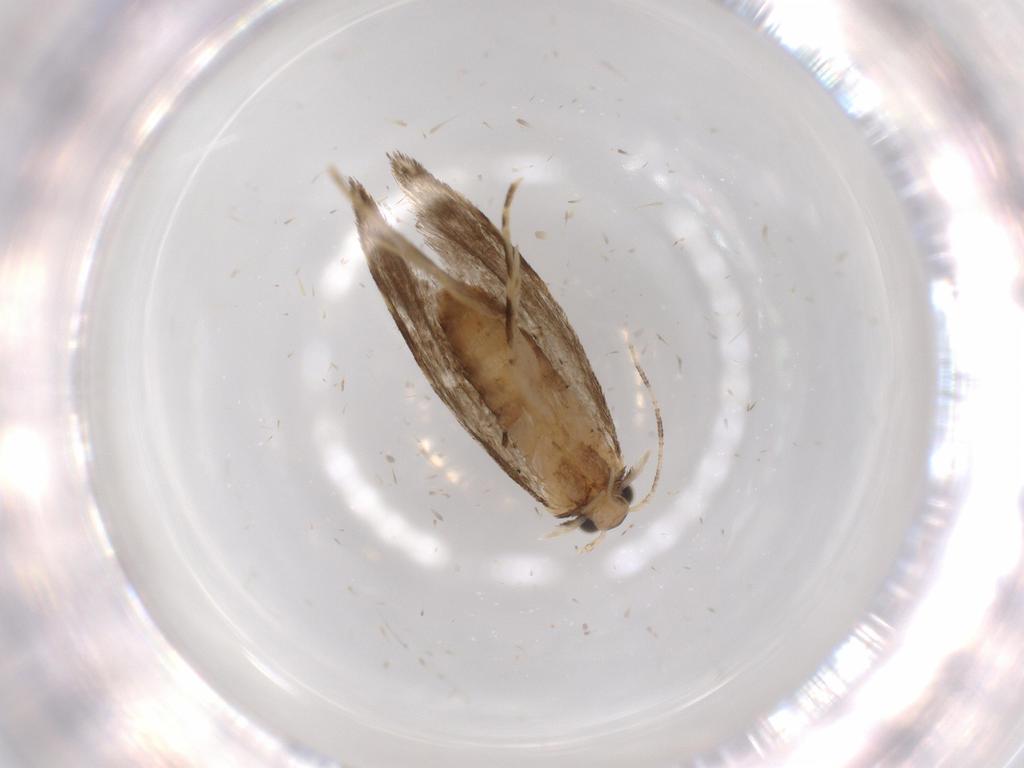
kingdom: Animalia
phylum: Arthropoda
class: Insecta
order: Lepidoptera
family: Tineidae
